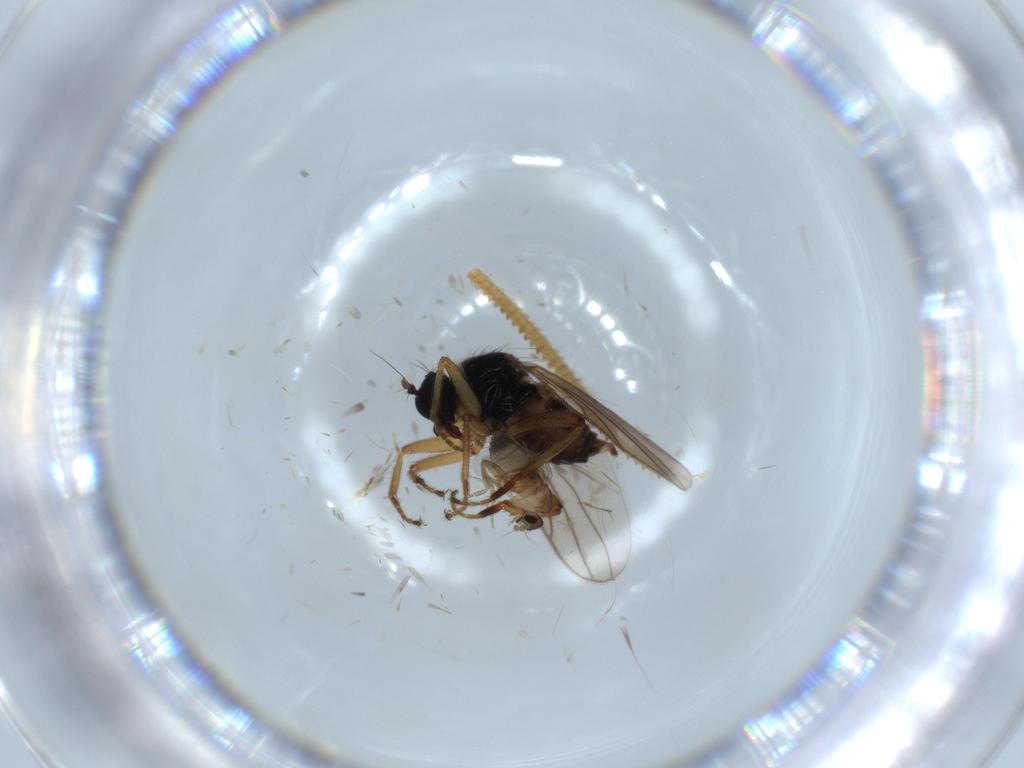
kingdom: Animalia
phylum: Arthropoda
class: Insecta
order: Diptera
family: Hybotidae
